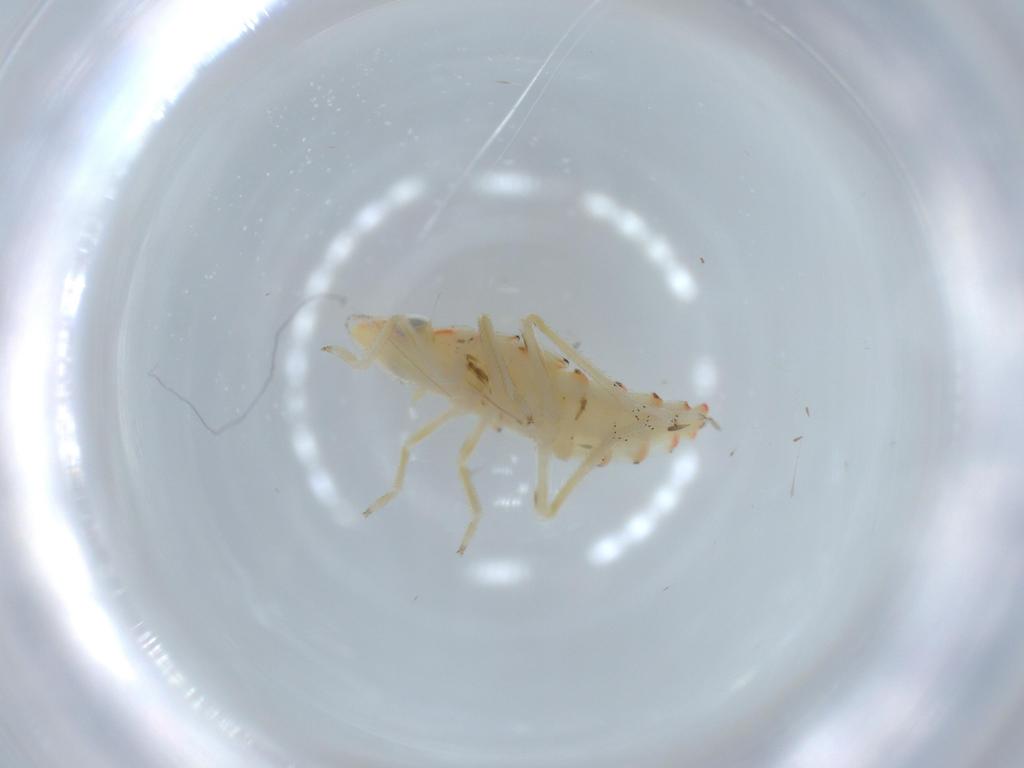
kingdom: Animalia
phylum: Arthropoda
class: Insecta
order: Hemiptera
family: Tropiduchidae
